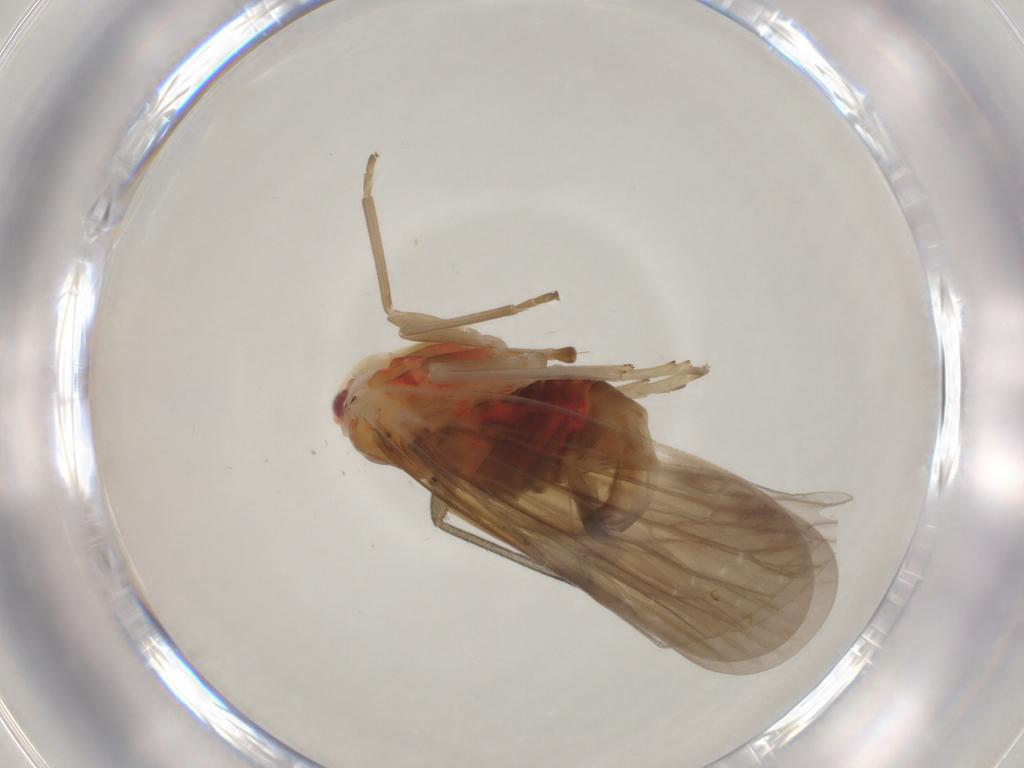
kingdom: Animalia
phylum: Arthropoda
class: Insecta
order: Hemiptera
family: Derbidae
